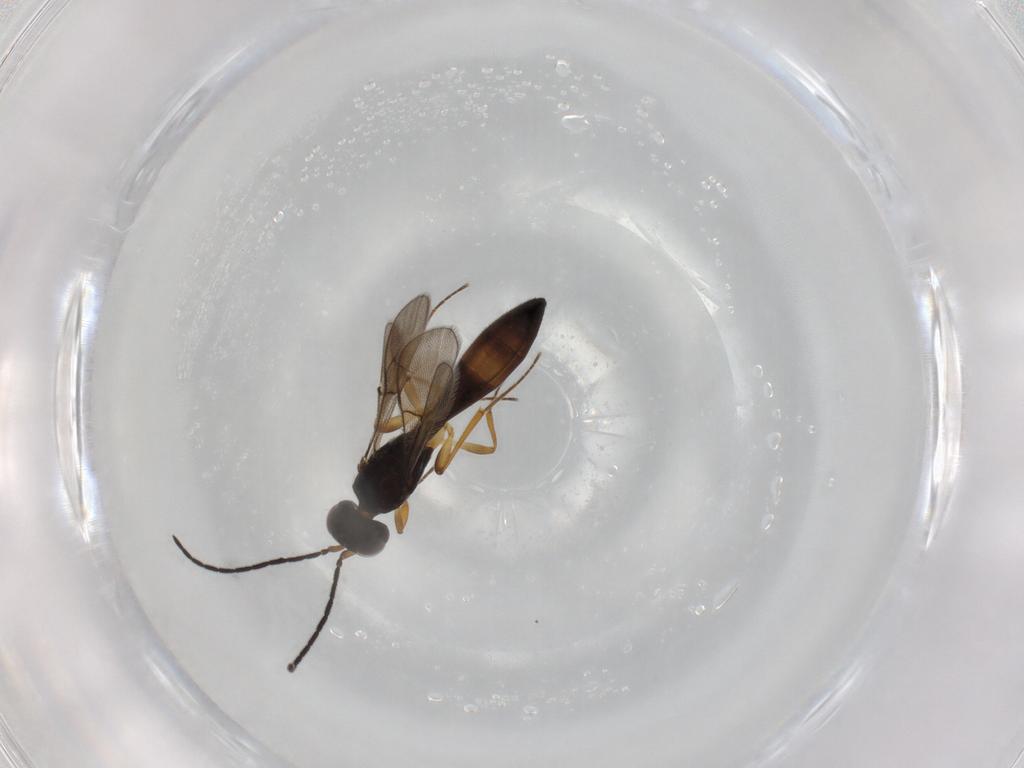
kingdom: Animalia
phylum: Arthropoda
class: Insecta
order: Hymenoptera
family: Scelionidae
